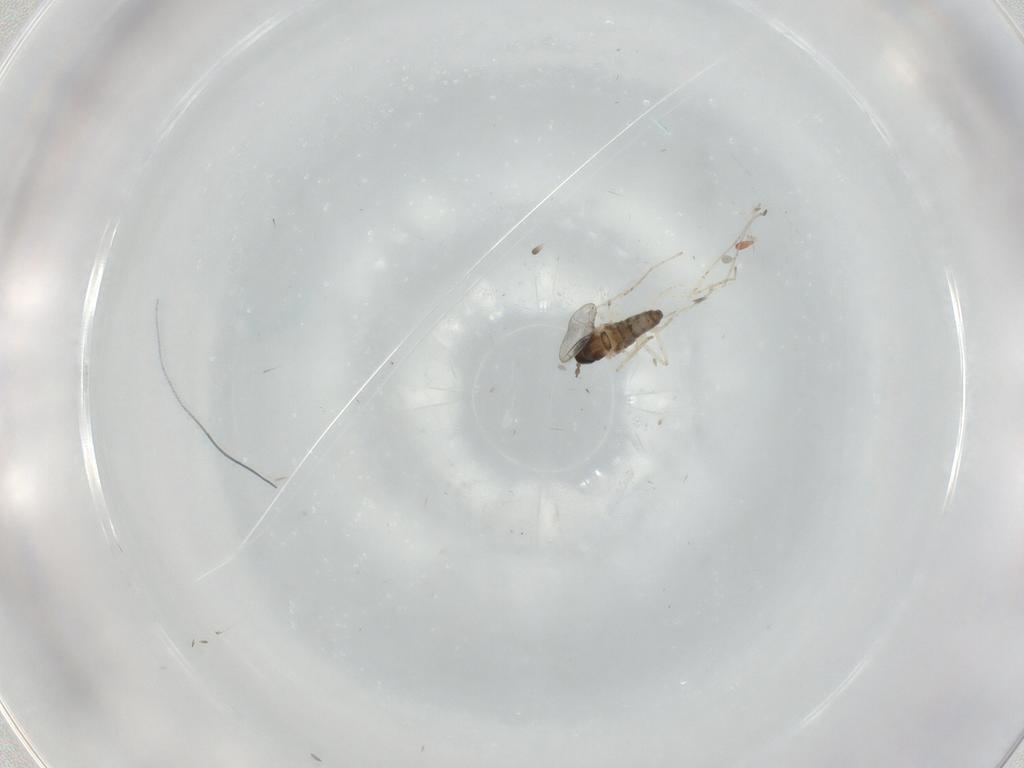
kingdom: Animalia
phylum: Arthropoda
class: Insecta
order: Diptera
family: Cecidomyiidae
